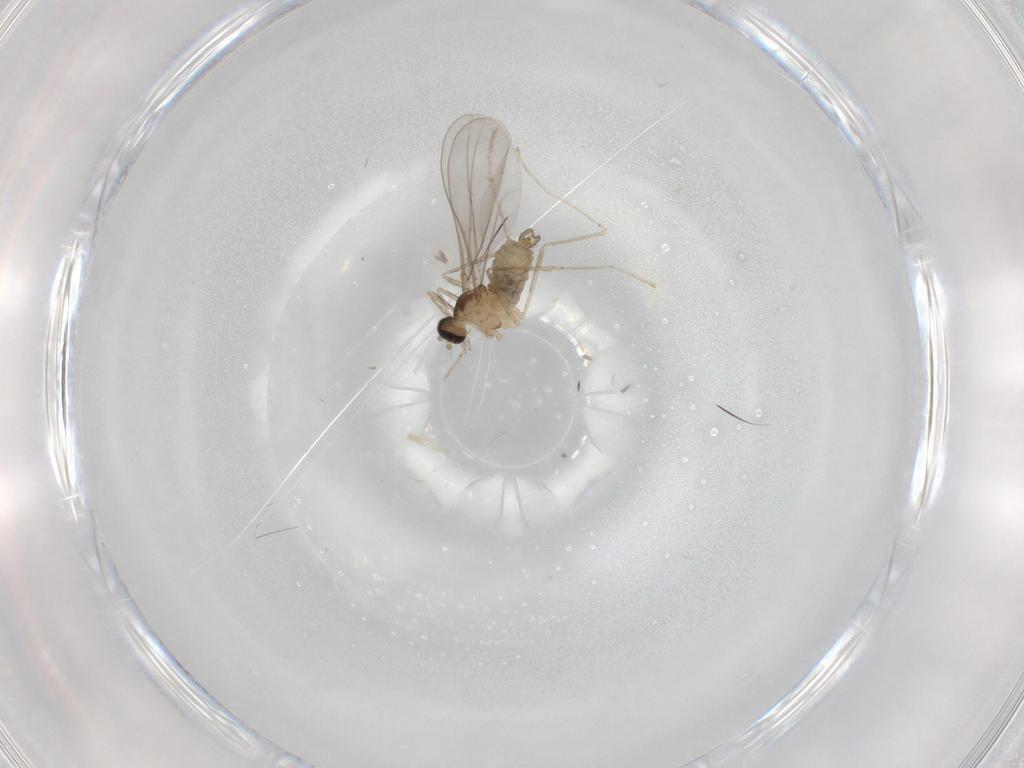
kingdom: Animalia
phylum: Arthropoda
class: Insecta
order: Diptera
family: Cecidomyiidae
